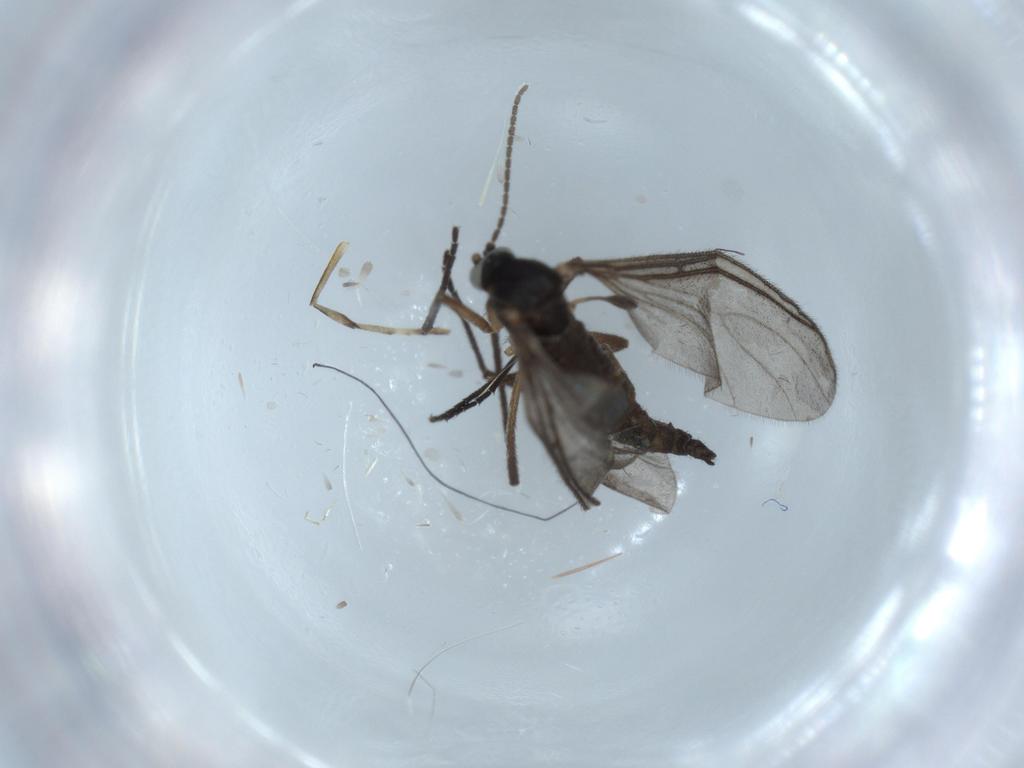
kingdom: Animalia
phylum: Arthropoda
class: Insecta
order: Diptera
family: Sciaridae
